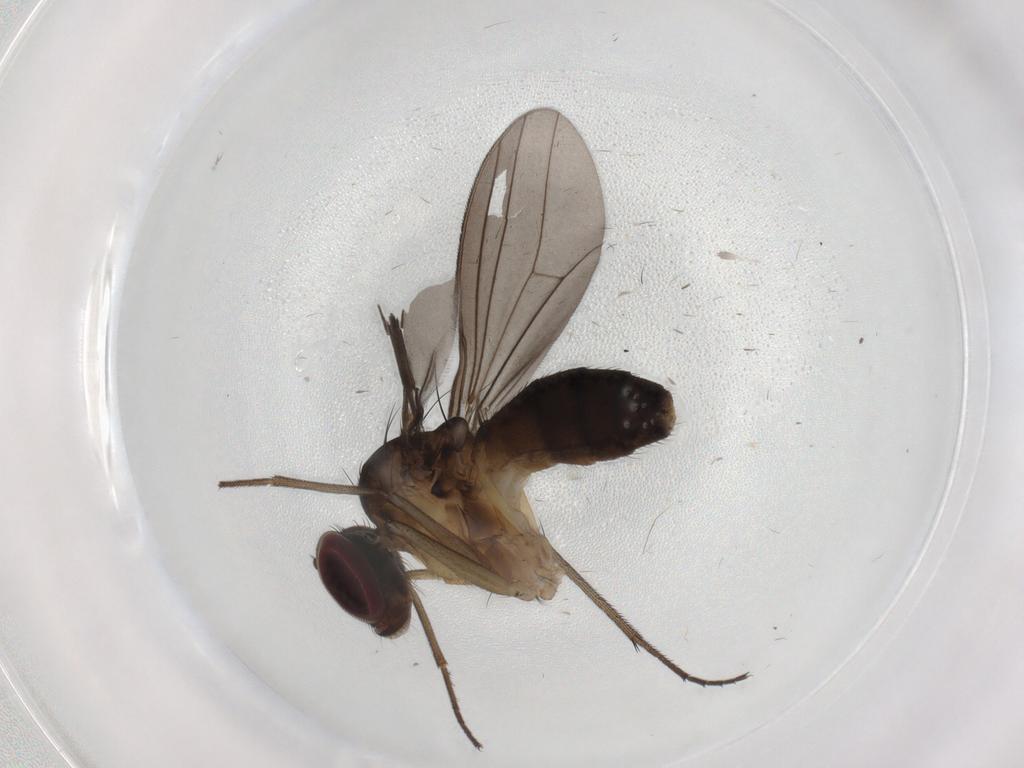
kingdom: Animalia
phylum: Arthropoda
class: Insecta
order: Diptera
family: Dolichopodidae
